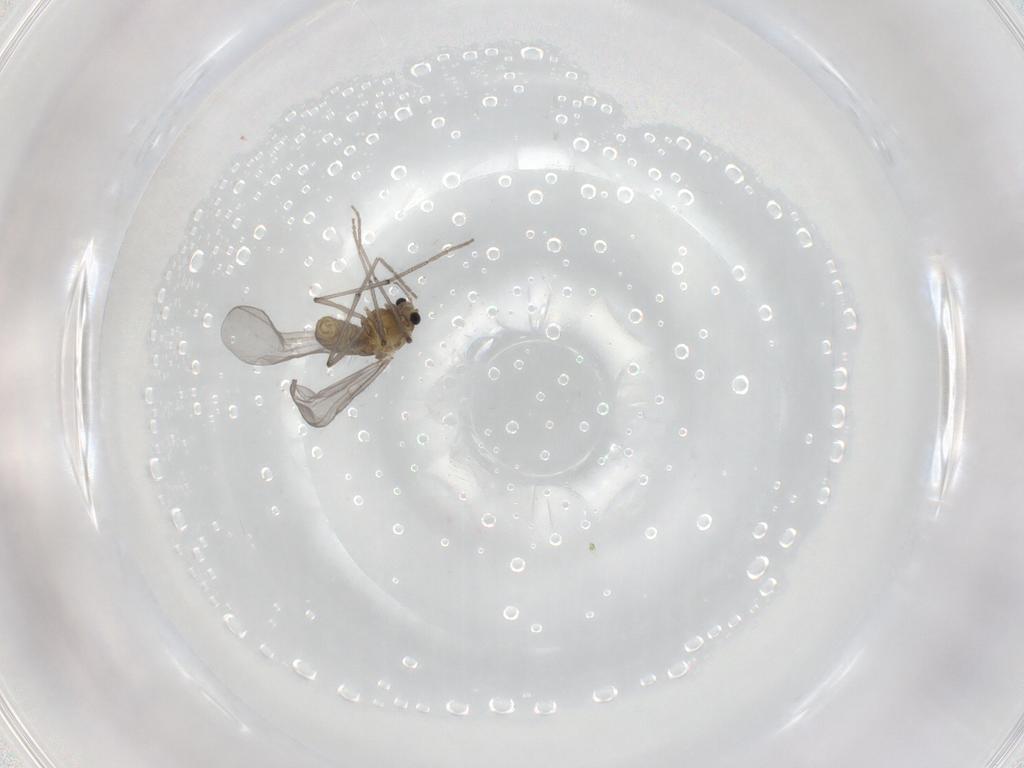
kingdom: Animalia
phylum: Arthropoda
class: Insecta
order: Diptera
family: Chironomidae
